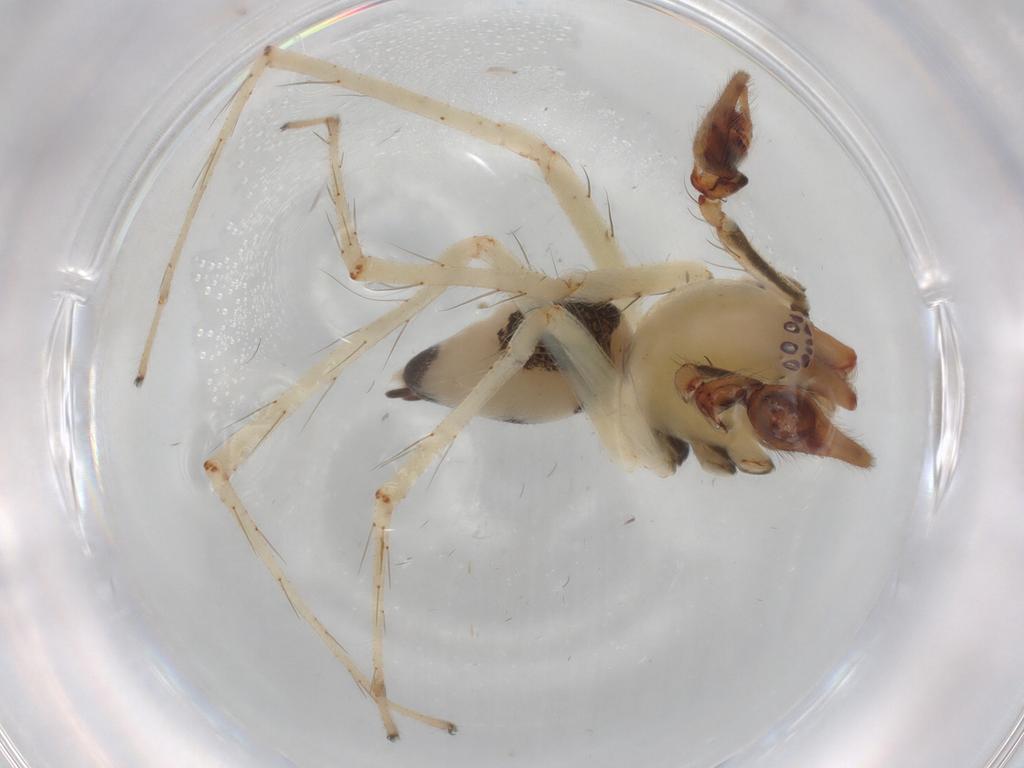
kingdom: Animalia
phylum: Arthropoda
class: Arachnida
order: Araneae
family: Anyphaenidae
